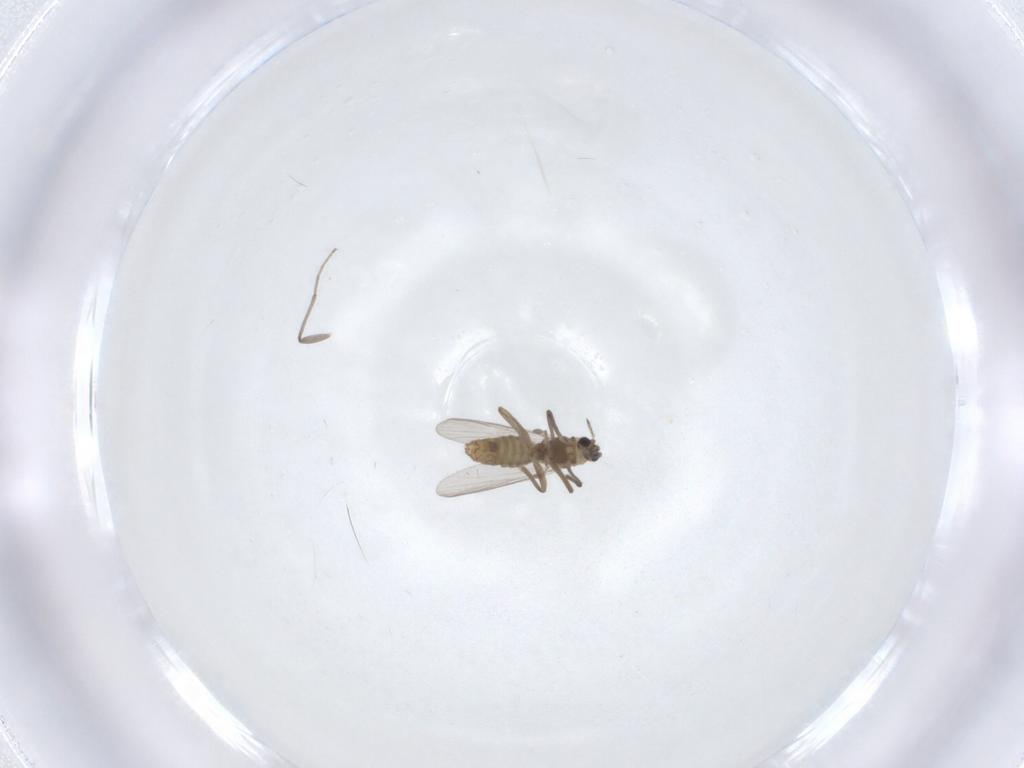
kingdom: Animalia
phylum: Arthropoda
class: Insecta
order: Diptera
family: Chironomidae
